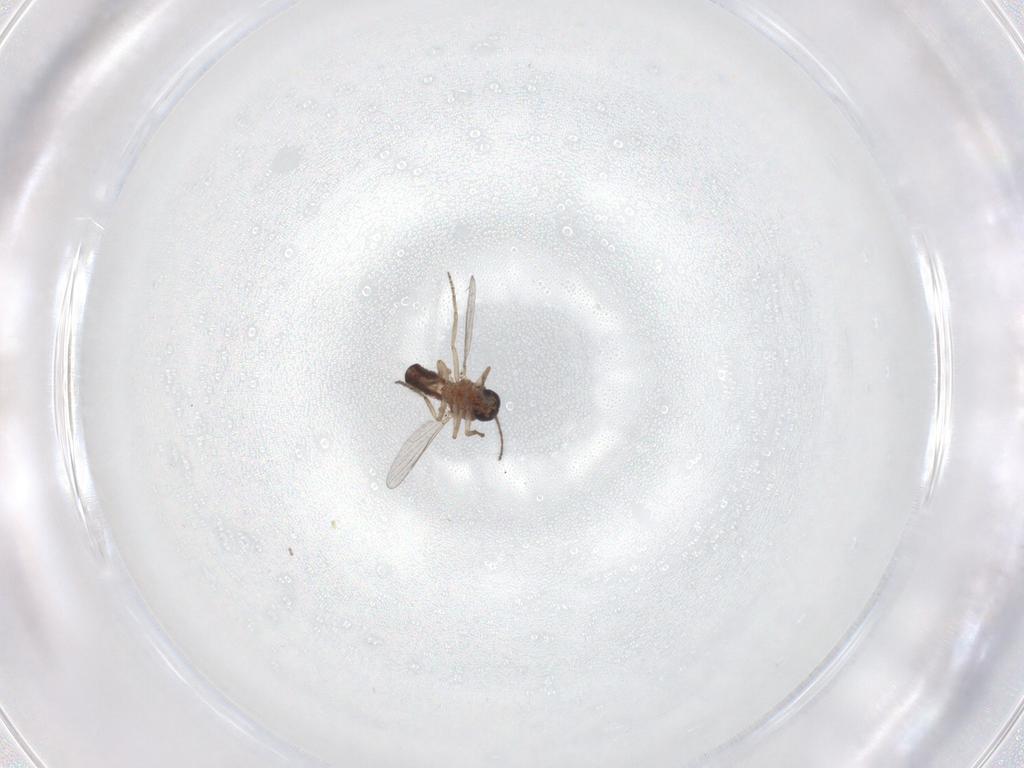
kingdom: Animalia
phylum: Arthropoda
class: Insecta
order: Diptera
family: Ceratopogonidae
